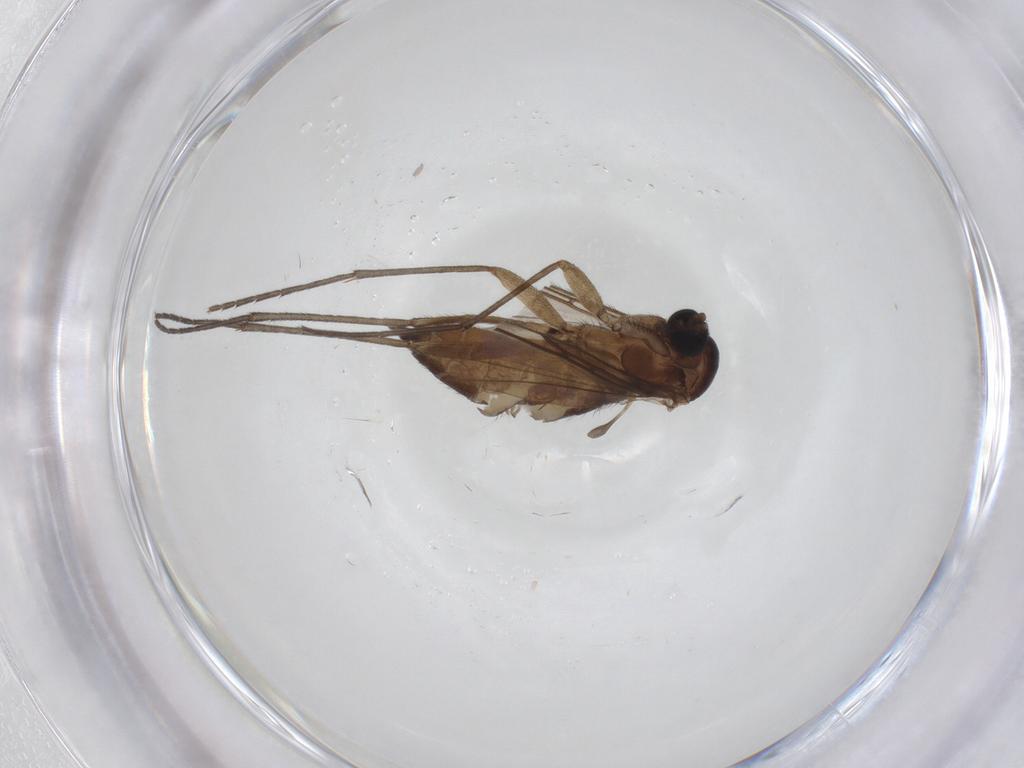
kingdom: Animalia
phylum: Arthropoda
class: Insecta
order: Diptera
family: Sciaridae
